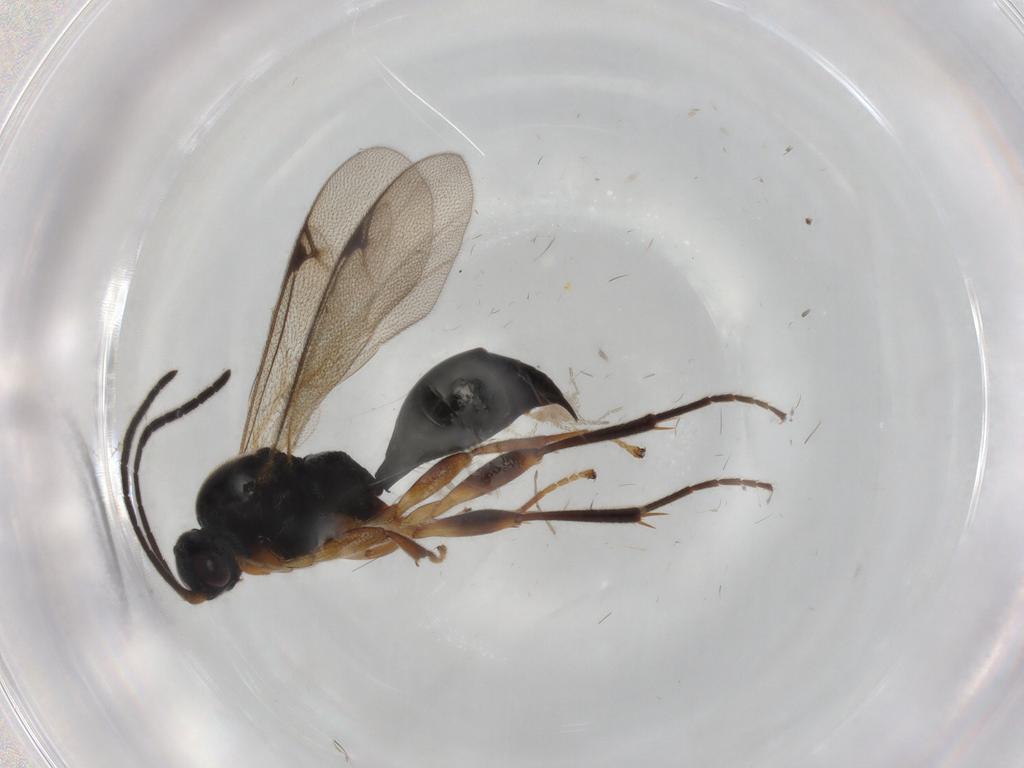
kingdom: Animalia
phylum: Arthropoda
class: Insecta
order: Hymenoptera
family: Proctotrupidae
